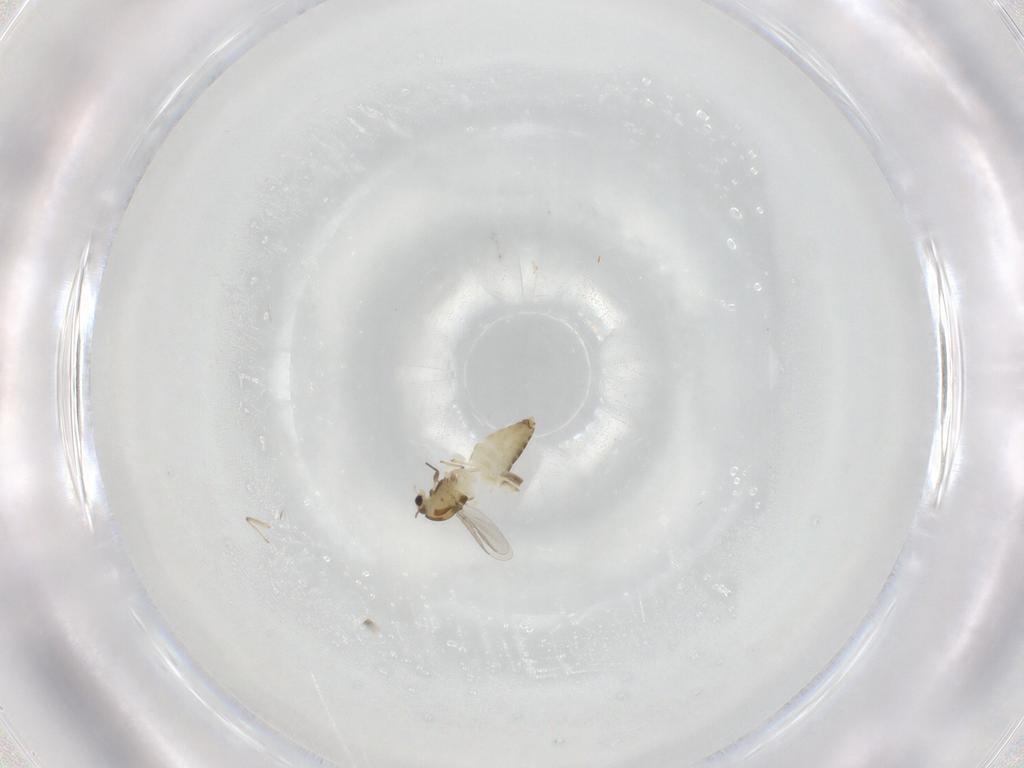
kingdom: Animalia
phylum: Arthropoda
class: Insecta
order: Diptera
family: Chironomidae
